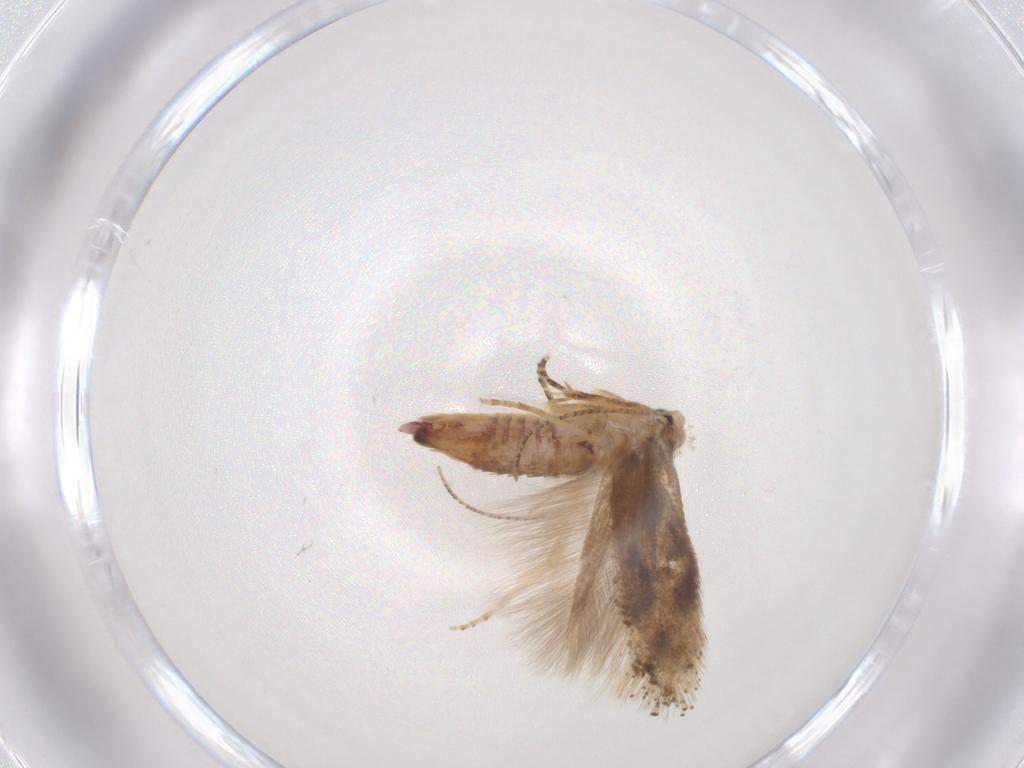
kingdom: Animalia
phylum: Arthropoda
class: Insecta
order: Lepidoptera
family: Bucculatricidae
